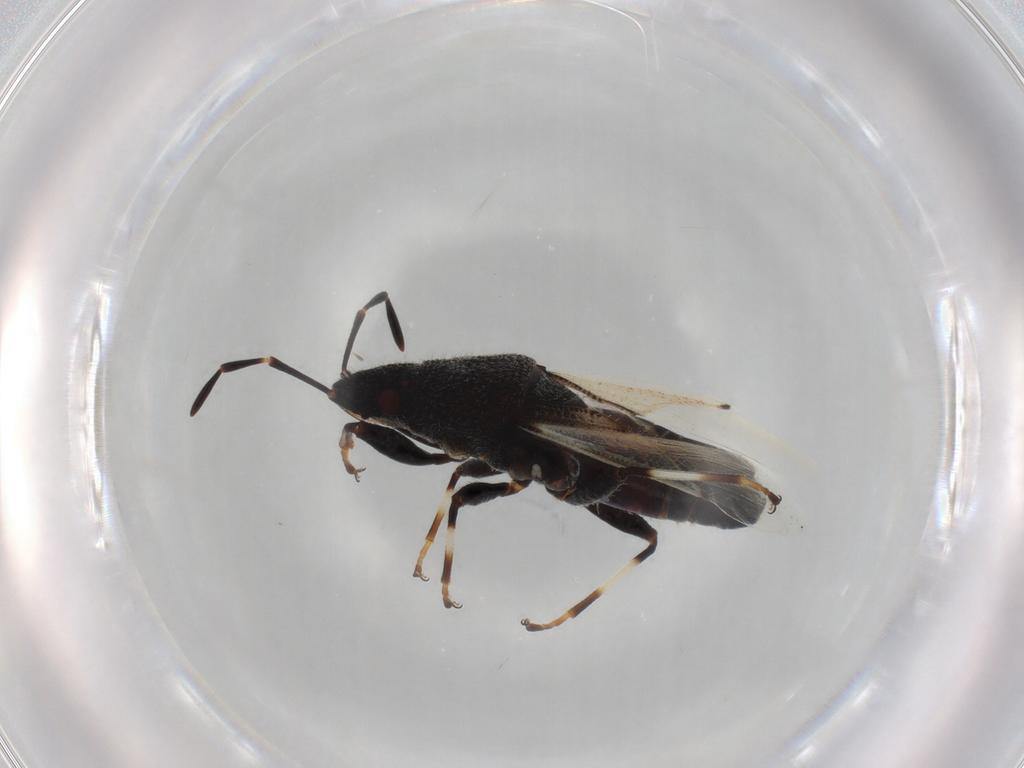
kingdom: Animalia
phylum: Arthropoda
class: Insecta
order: Hemiptera
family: Oxycarenidae
